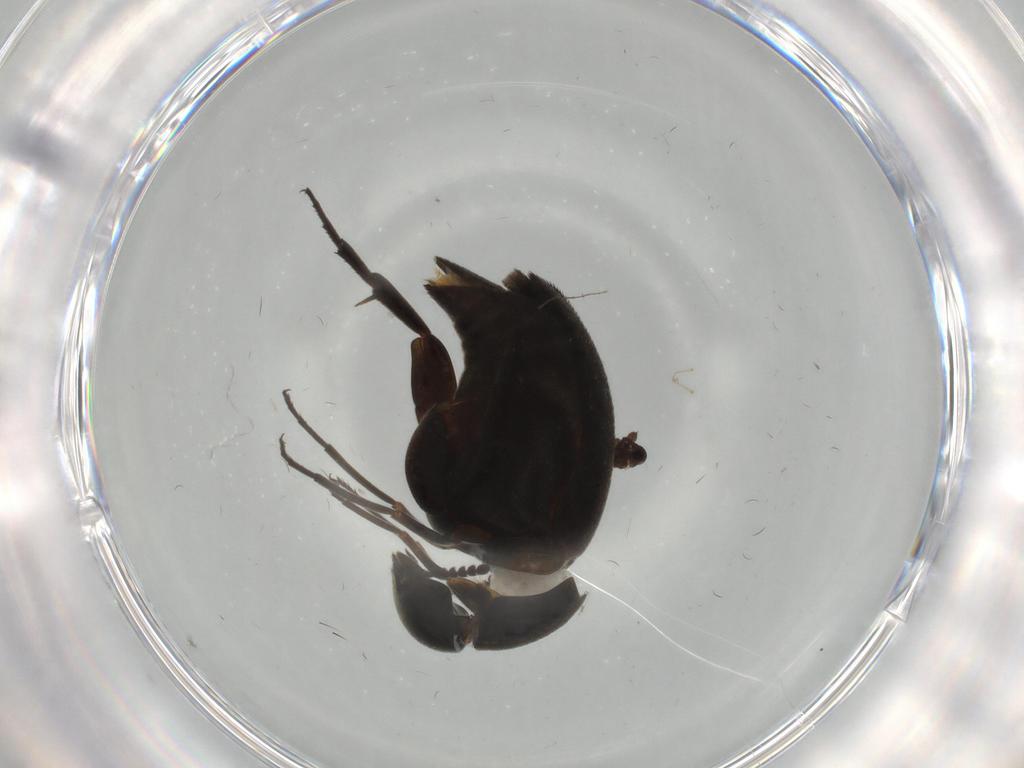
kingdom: Animalia
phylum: Arthropoda
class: Insecta
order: Coleoptera
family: Mordellidae
